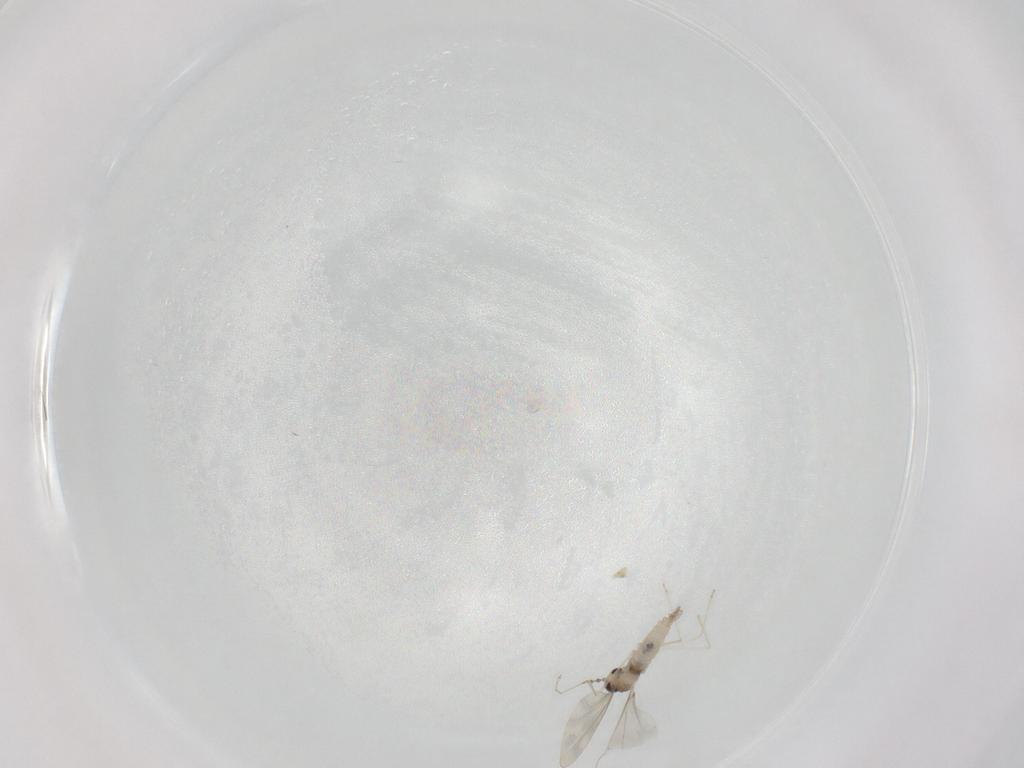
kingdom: Animalia
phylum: Arthropoda
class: Insecta
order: Diptera
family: Cecidomyiidae
